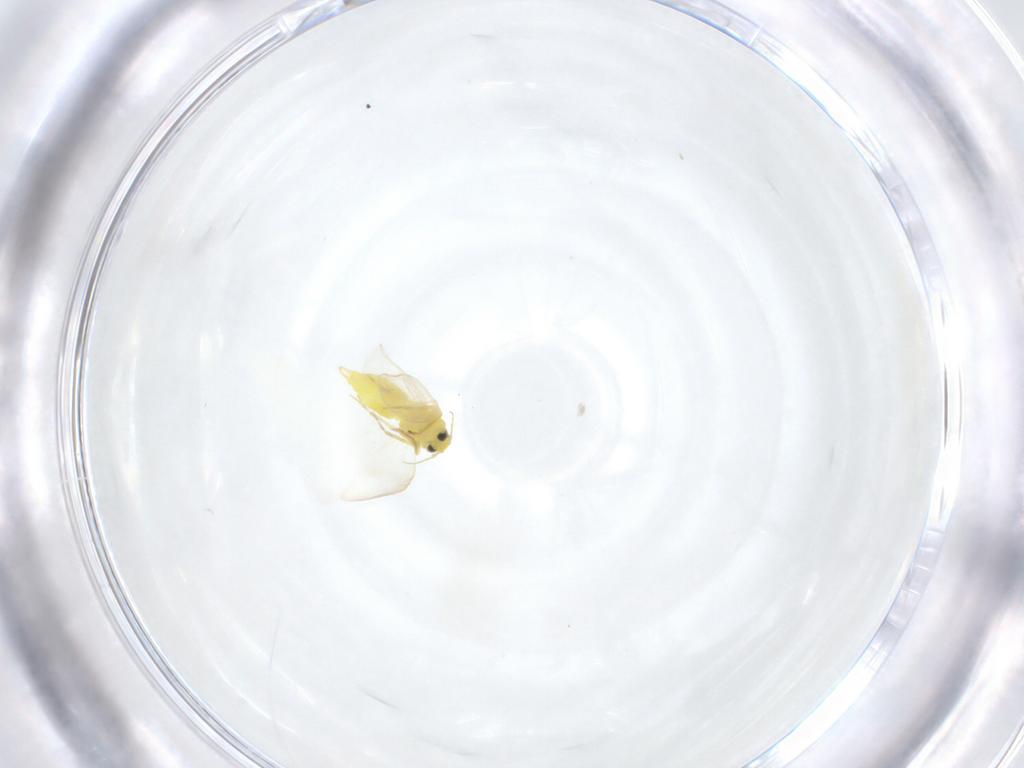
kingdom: Animalia
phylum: Arthropoda
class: Insecta
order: Hemiptera
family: Aleyrodidae
